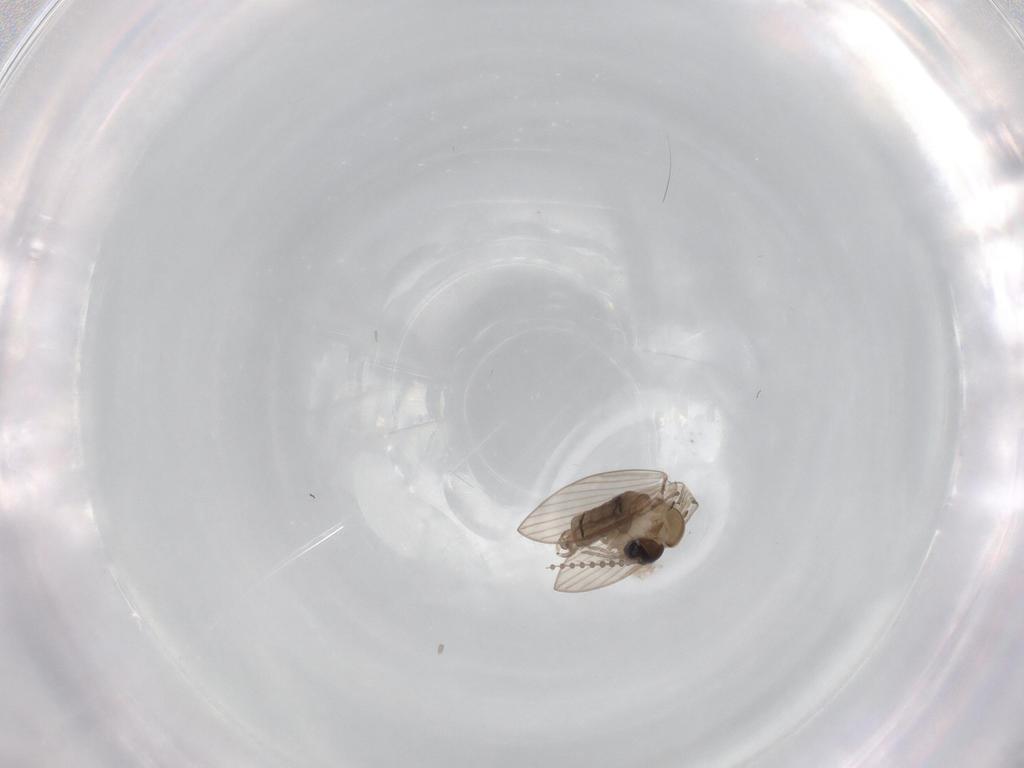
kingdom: Animalia
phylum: Arthropoda
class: Insecta
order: Diptera
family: Psychodidae
